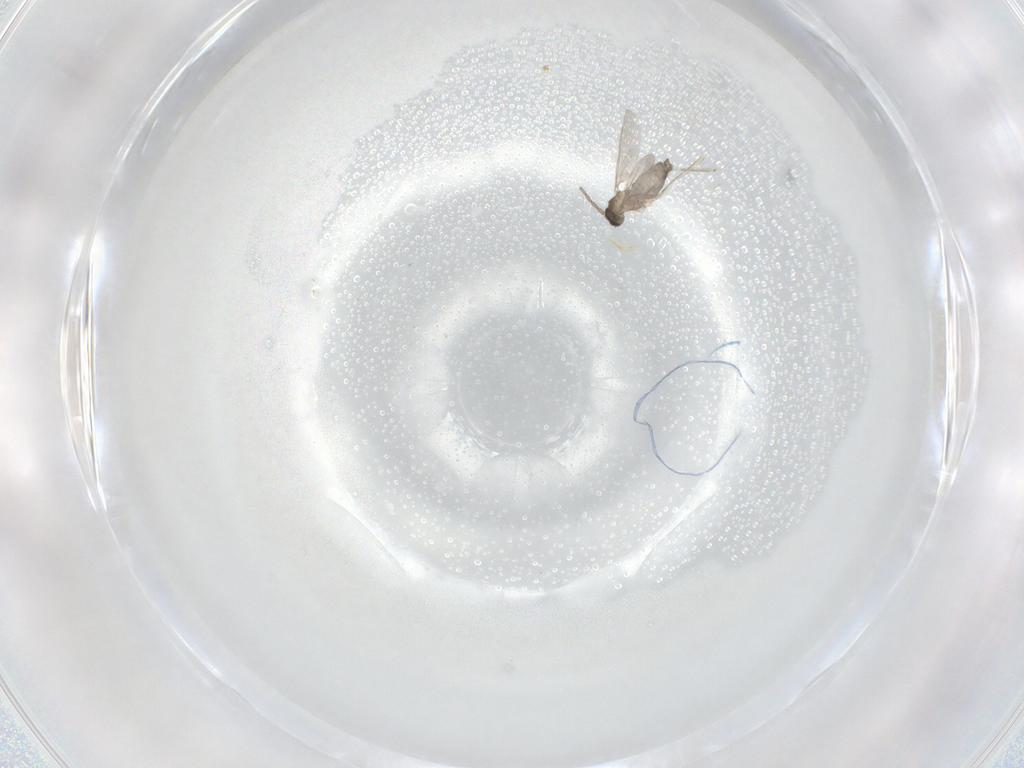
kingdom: Animalia
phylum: Arthropoda
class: Insecta
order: Diptera
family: Cecidomyiidae
